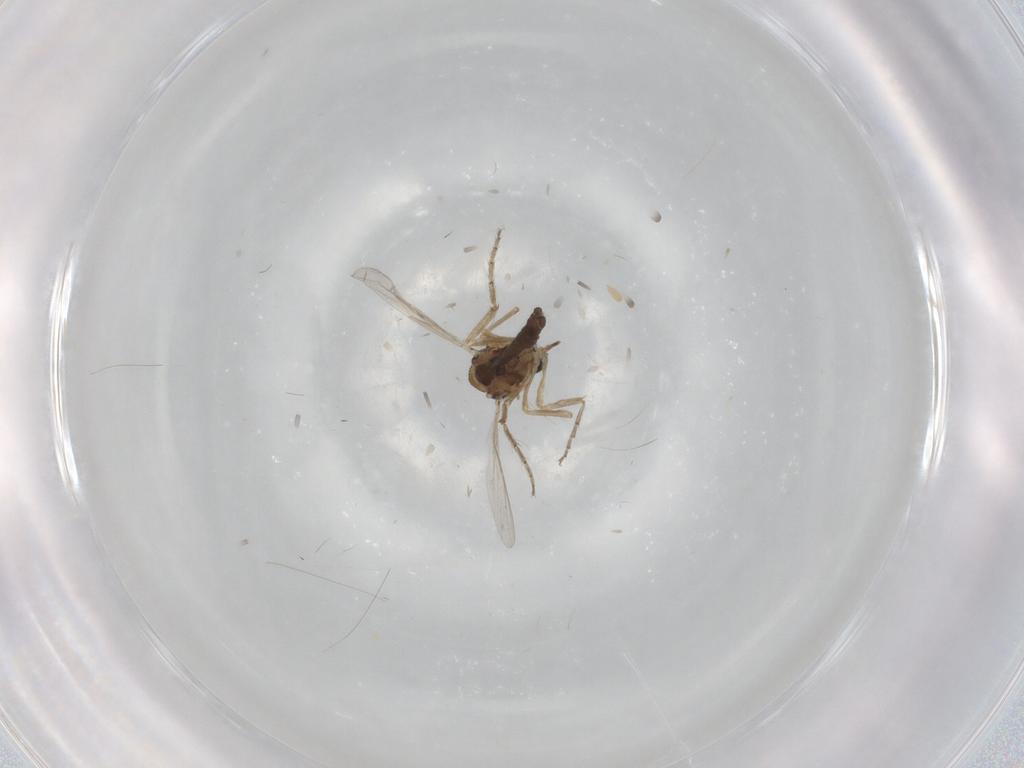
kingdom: Animalia
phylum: Arthropoda
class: Insecta
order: Diptera
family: Ceratopogonidae
